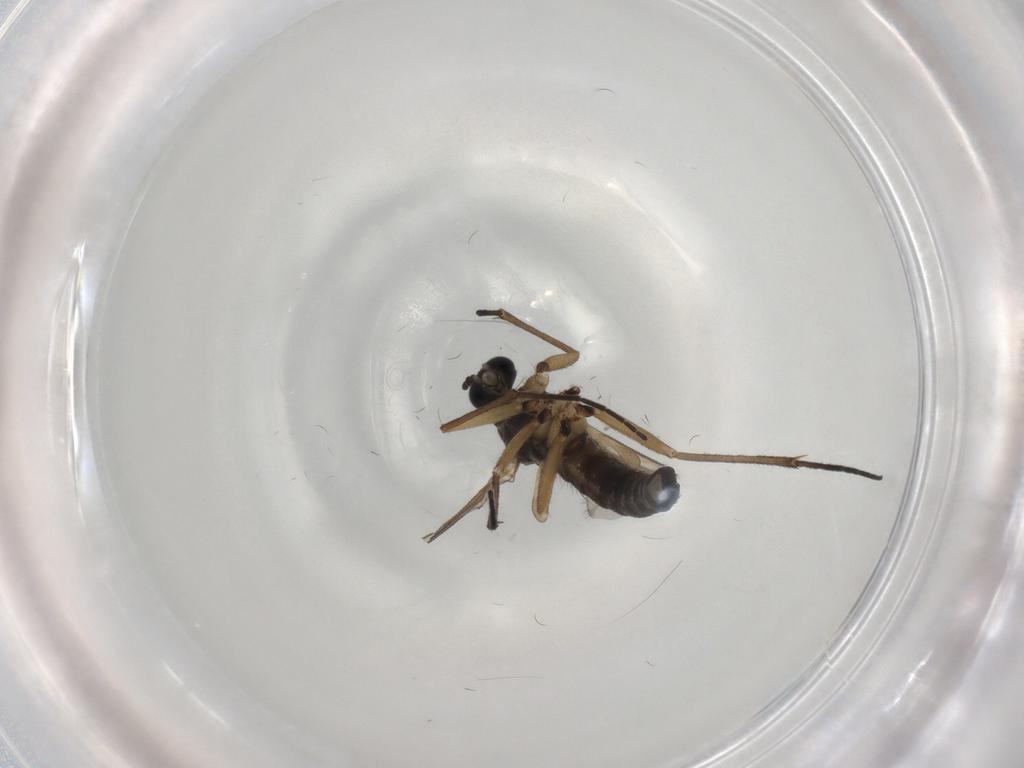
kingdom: Animalia
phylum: Arthropoda
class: Insecta
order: Diptera
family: Sciaridae
